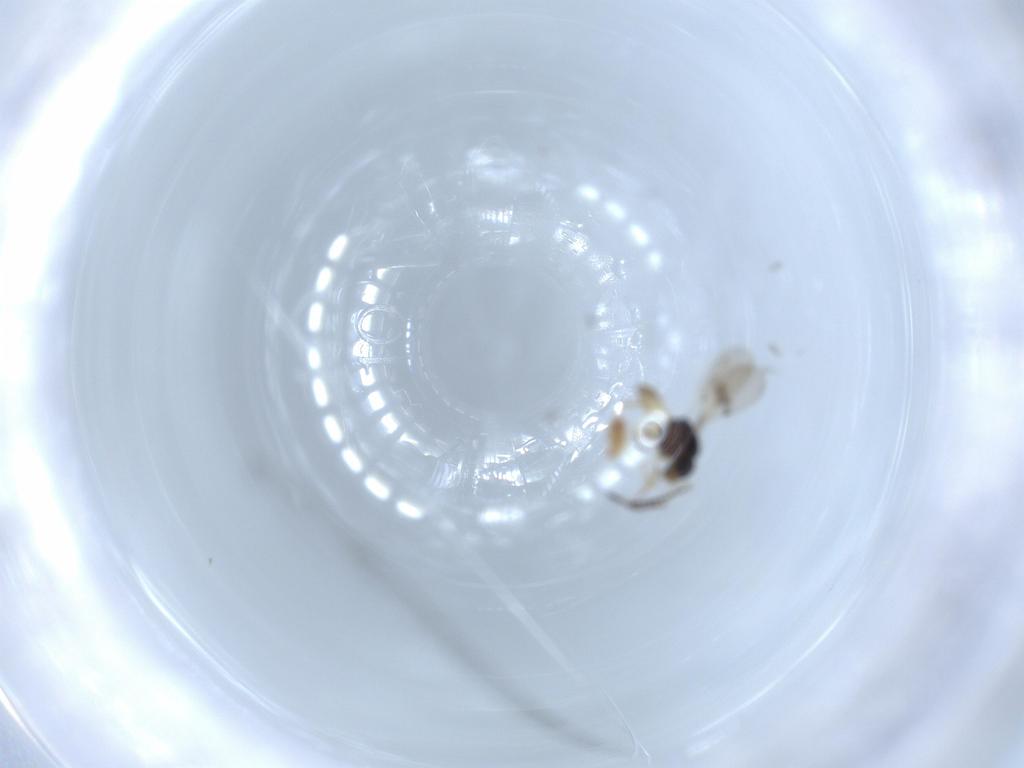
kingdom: Animalia
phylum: Arthropoda
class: Insecta
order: Hymenoptera
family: Scelionidae
